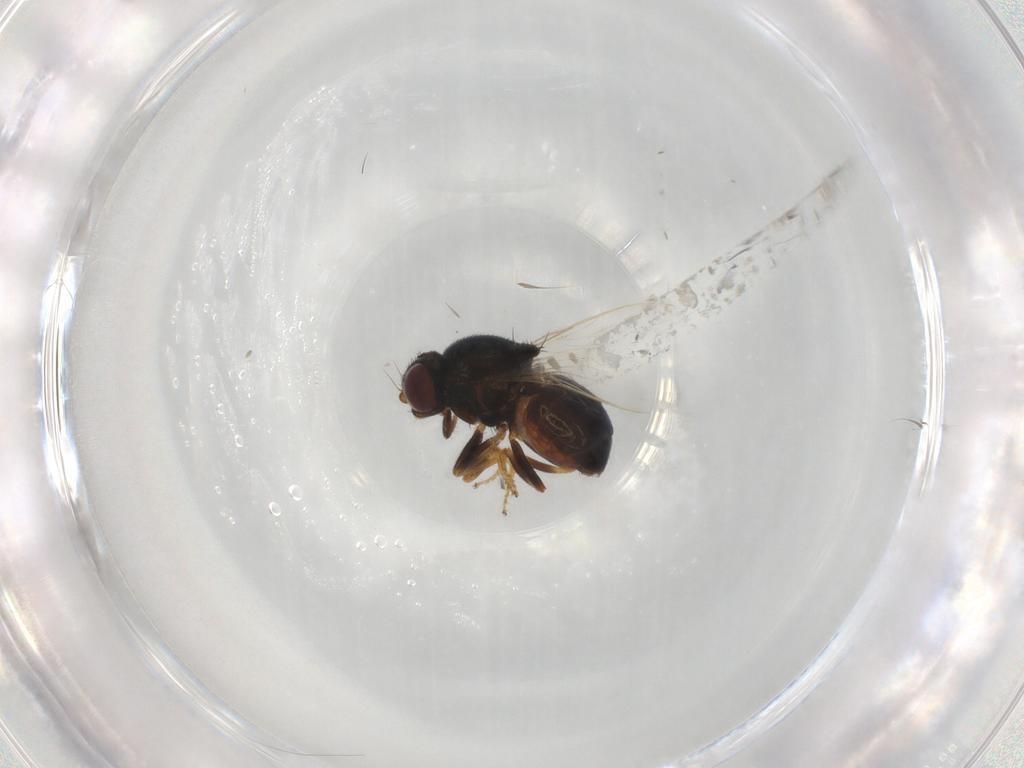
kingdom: Animalia
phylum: Arthropoda
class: Insecta
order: Diptera
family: Chloropidae
